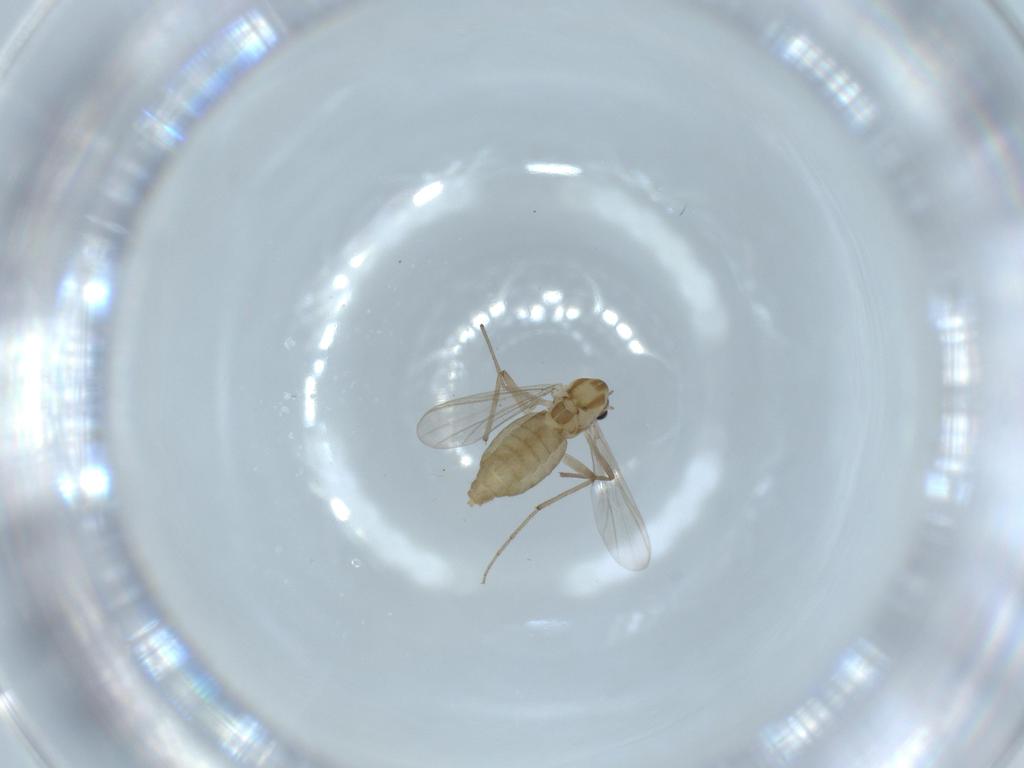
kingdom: Animalia
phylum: Arthropoda
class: Insecta
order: Diptera
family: Chironomidae
